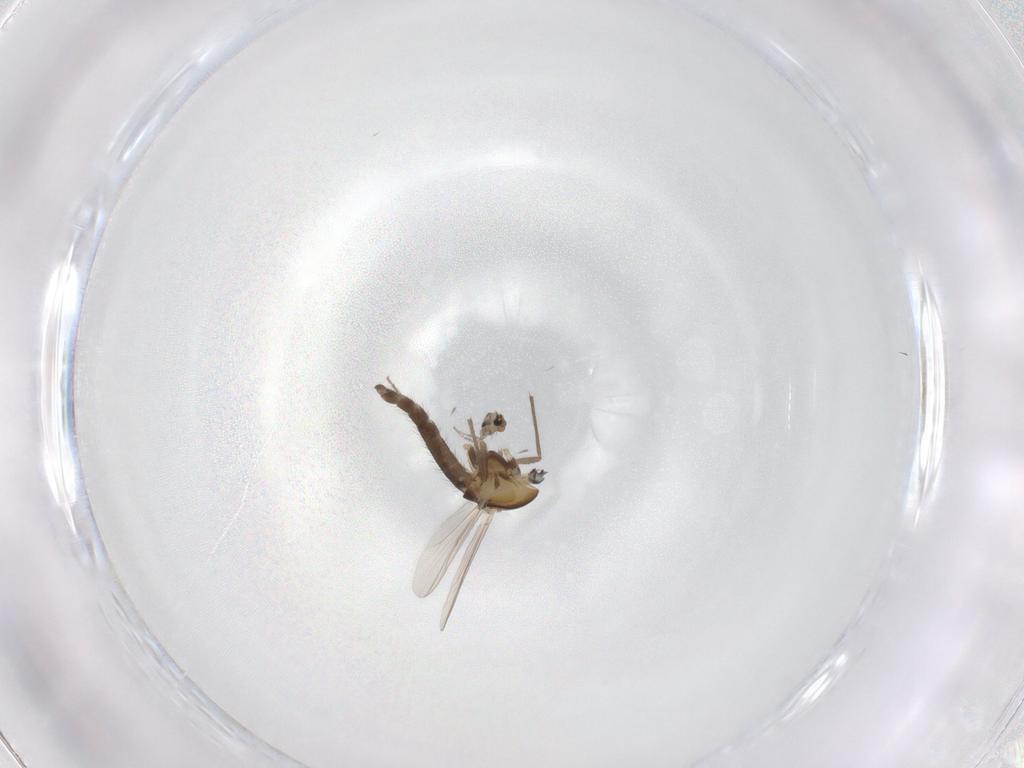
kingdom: Animalia
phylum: Arthropoda
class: Insecta
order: Diptera
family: Chironomidae
